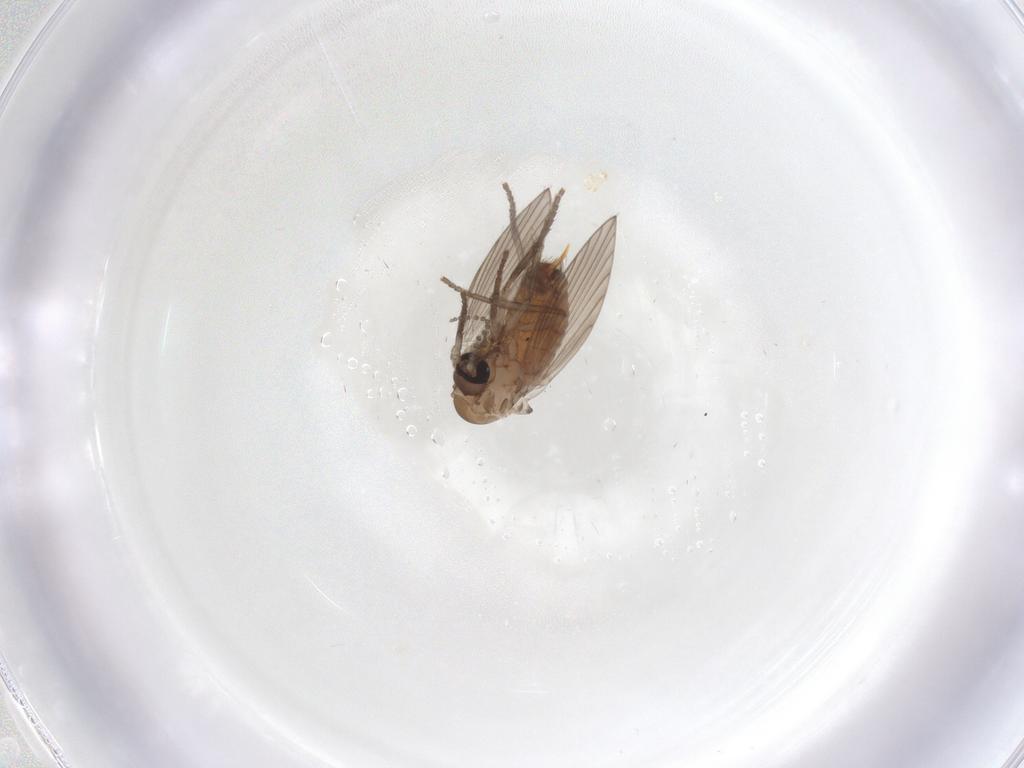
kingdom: Animalia
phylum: Arthropoda
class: Insecta
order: Diptera
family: Psychodidae
